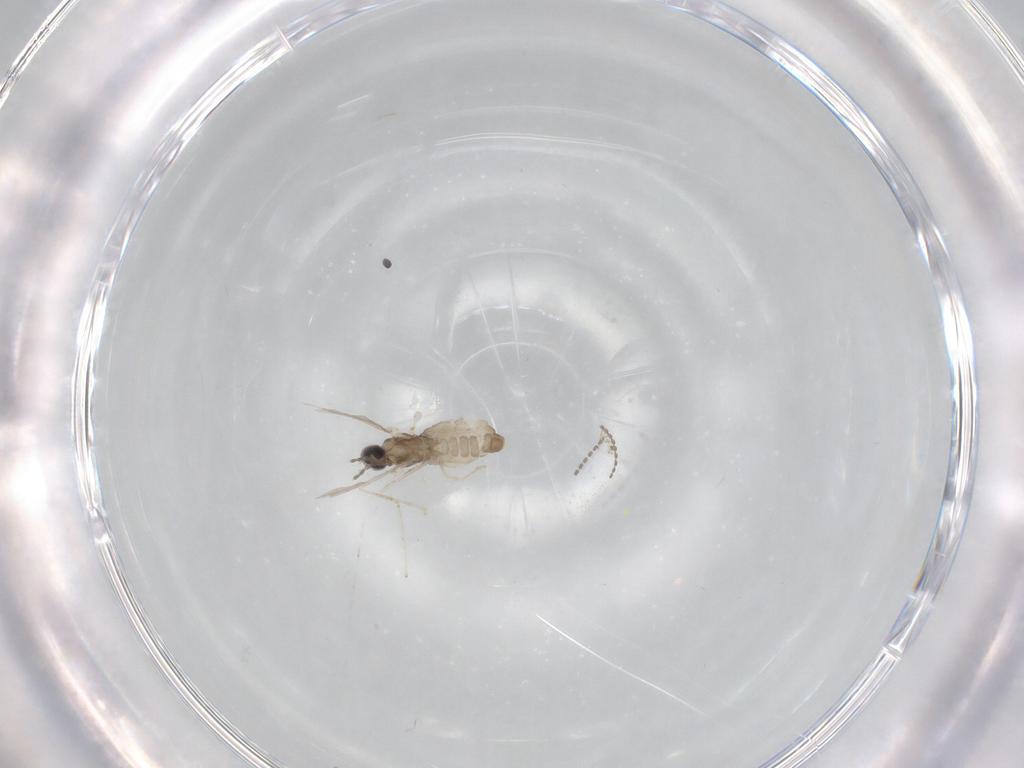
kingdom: Animalia
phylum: Arthropoda
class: Insecta
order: Diptera
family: Cecidomyiidae
